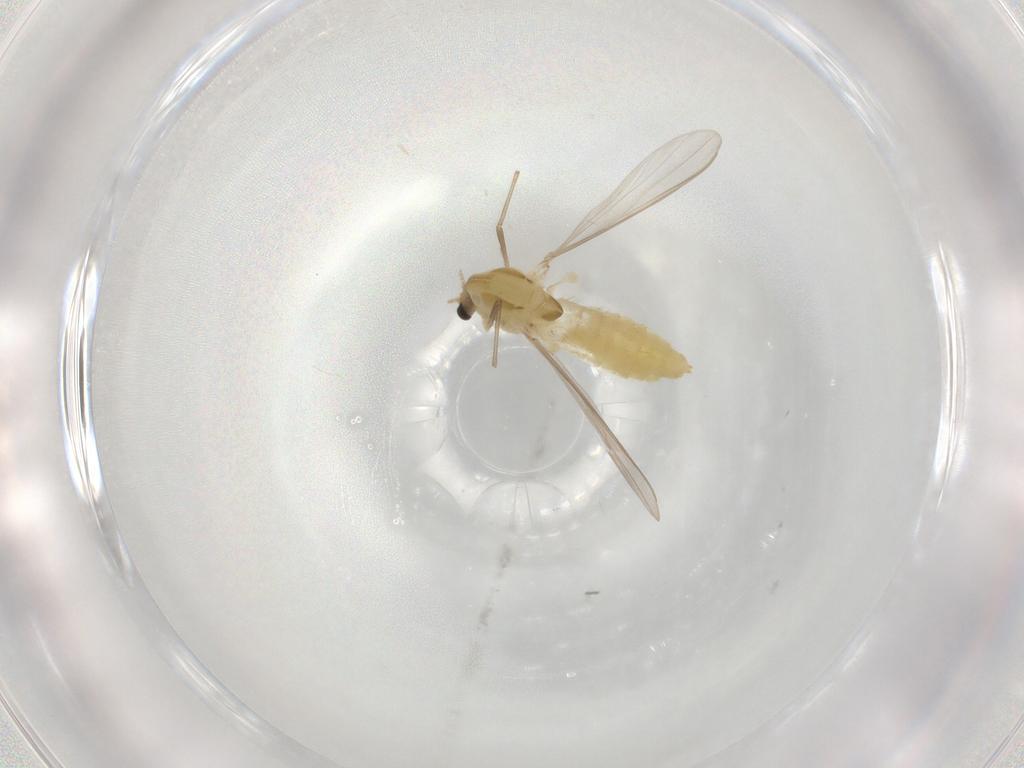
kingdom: Animalia
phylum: Arthropoda
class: Insecta
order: Diptera
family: Chironomidae
